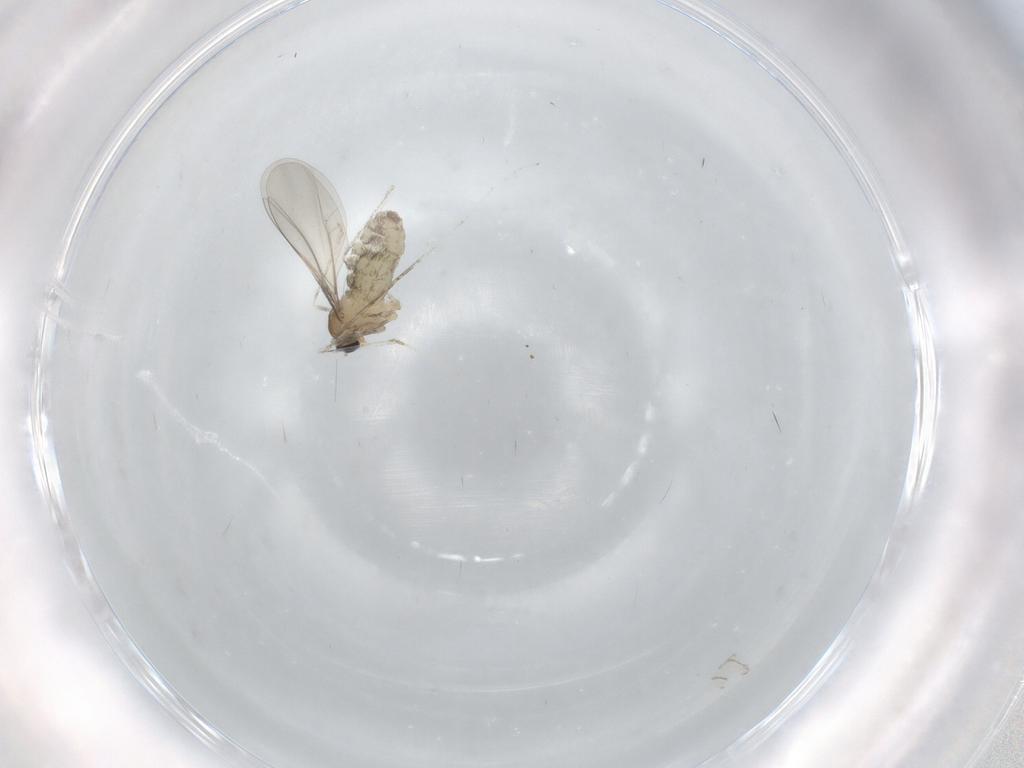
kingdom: Animalia
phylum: Arthropoda
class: Insecta
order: Diptera
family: Cecidomyiidae
